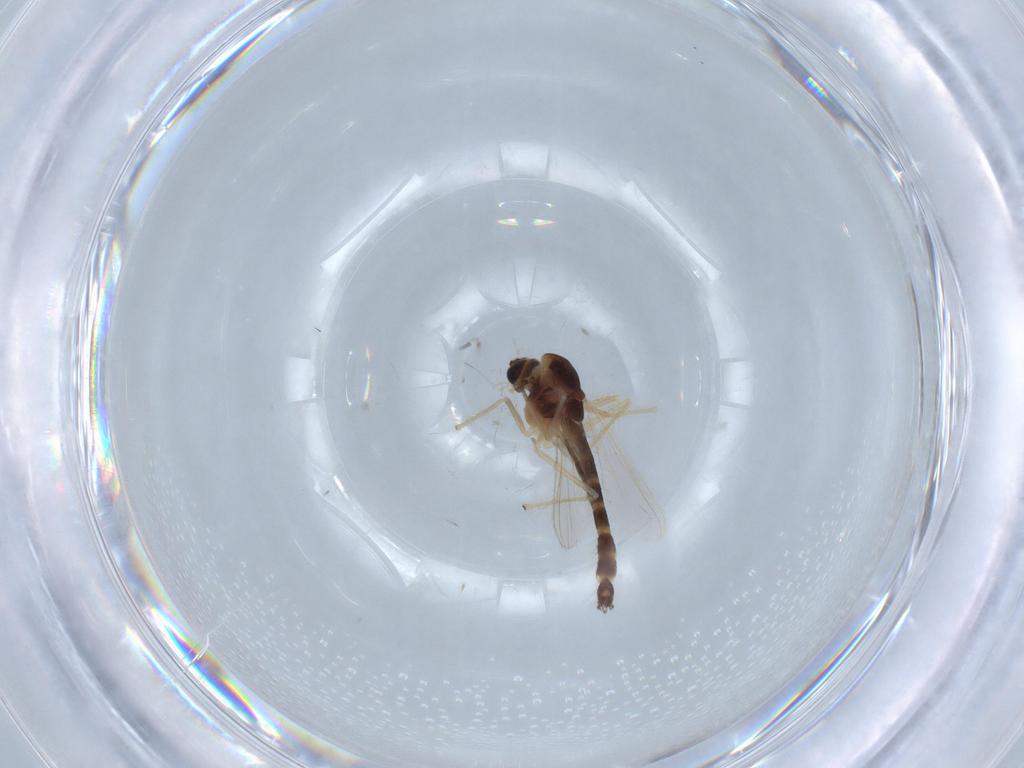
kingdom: Animalia
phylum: Arthropoda
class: Insecta
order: Diptera
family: Chironomidae
